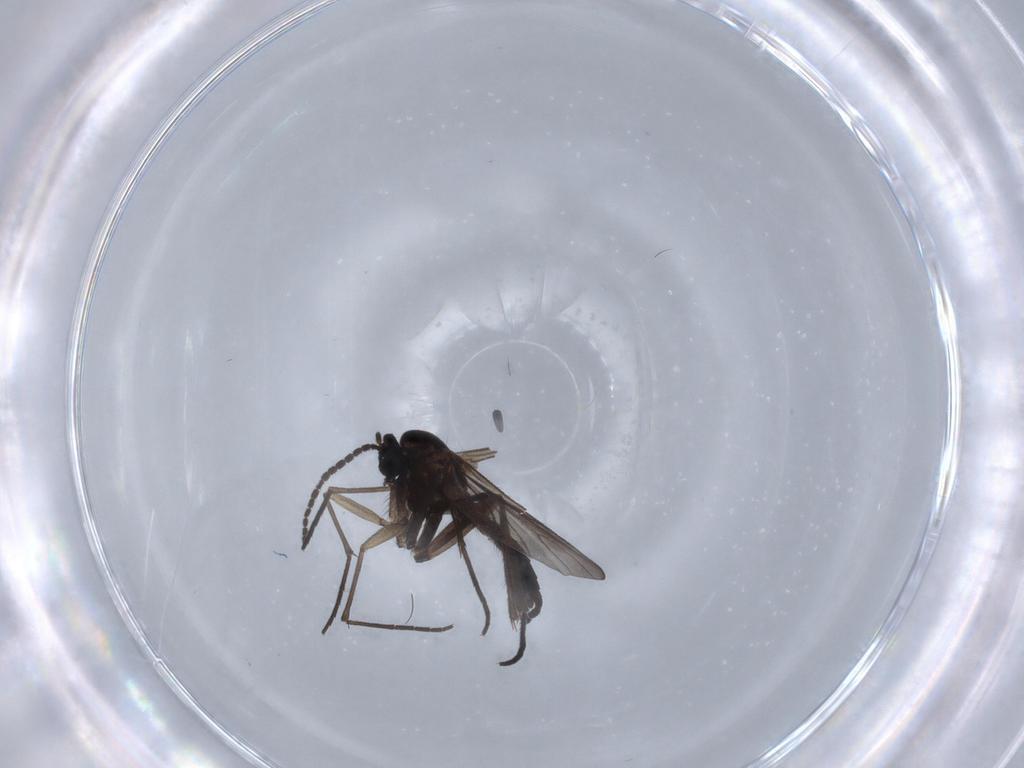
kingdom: Animalia
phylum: Arthropoda
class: Insecta
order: Diptera
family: Sciaridae
